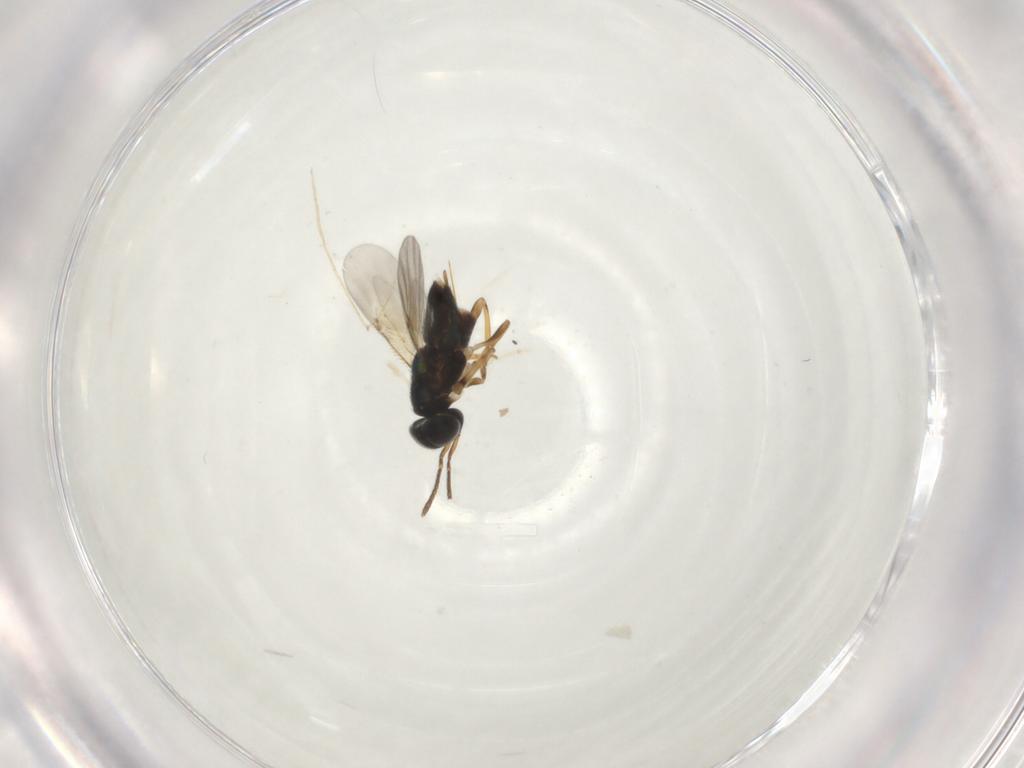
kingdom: Animalia
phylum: Arthropoda
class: Insecta
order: Hymenoptera
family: Encyrtidae
